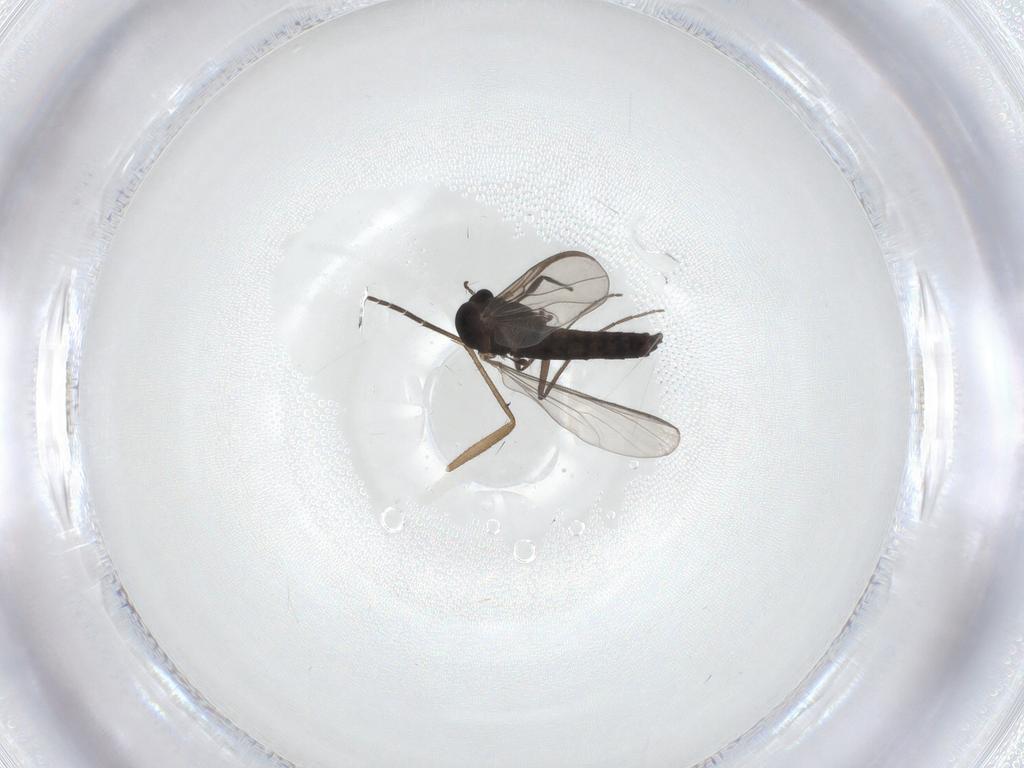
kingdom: Animalia
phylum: Arthropoda
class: Insecta
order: Diptera
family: Chironomidae
